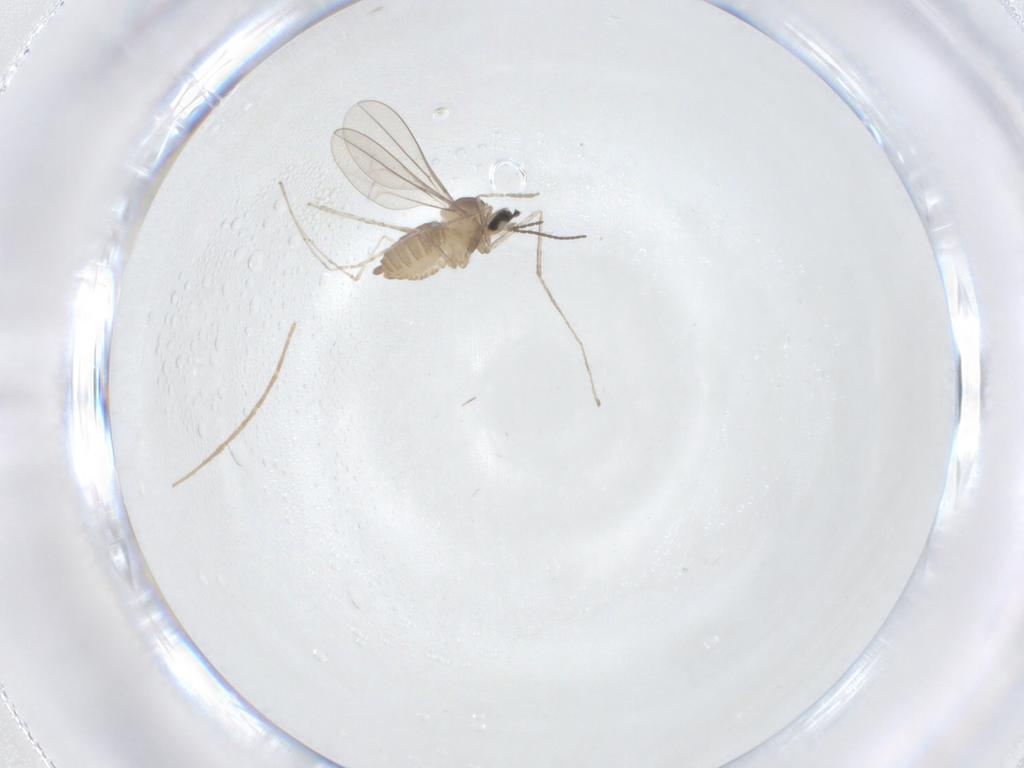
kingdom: Animalia
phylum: Arthropoda
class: Insecta
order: Diptera
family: Cecidomyiidae
